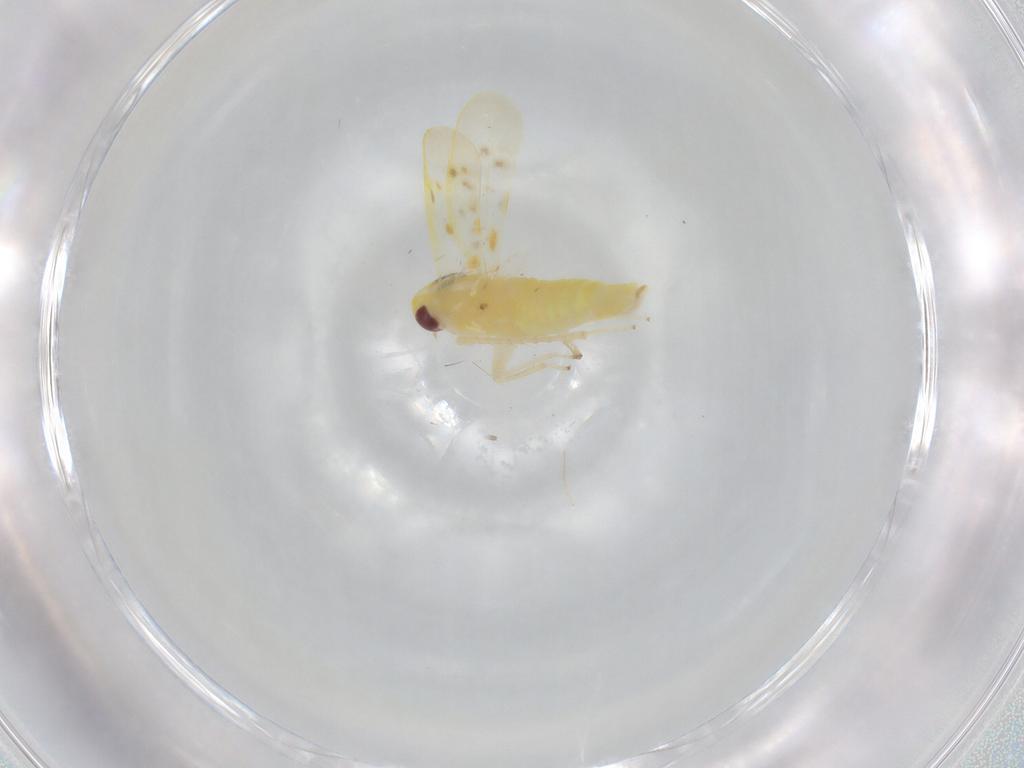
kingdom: Animalia
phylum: Arthropoda
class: Insecta
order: Hemiptera
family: Cicadellidae
